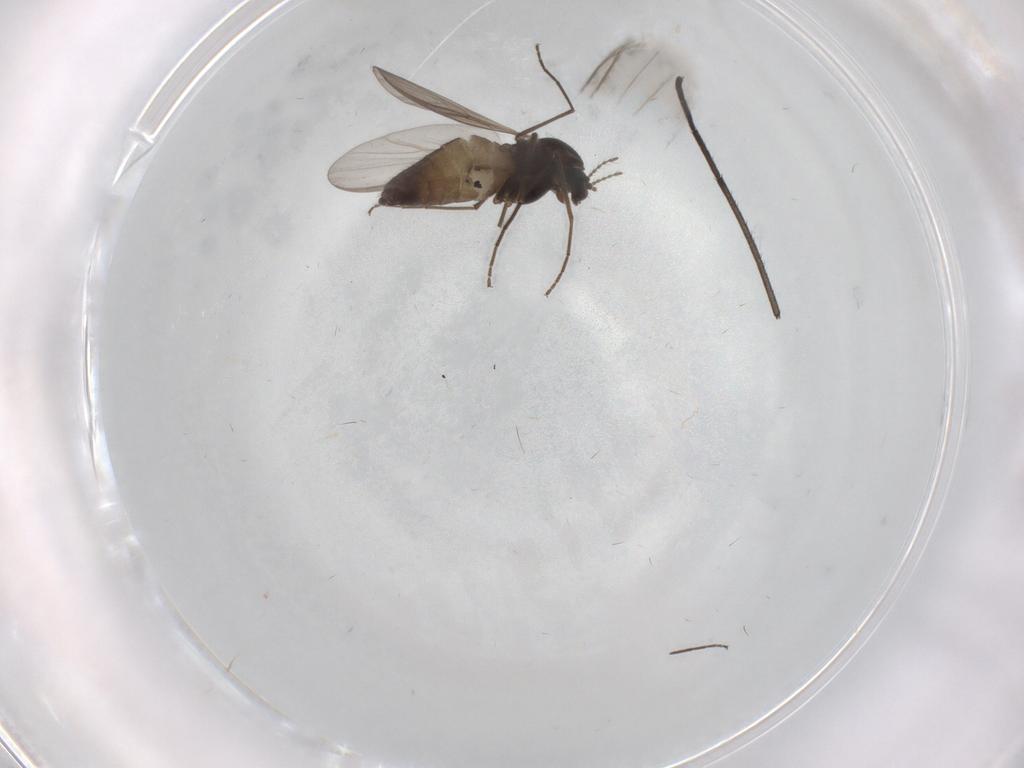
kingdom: Animalia
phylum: Arthropoda
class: Insecta
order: Diptera
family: Chironomidae
